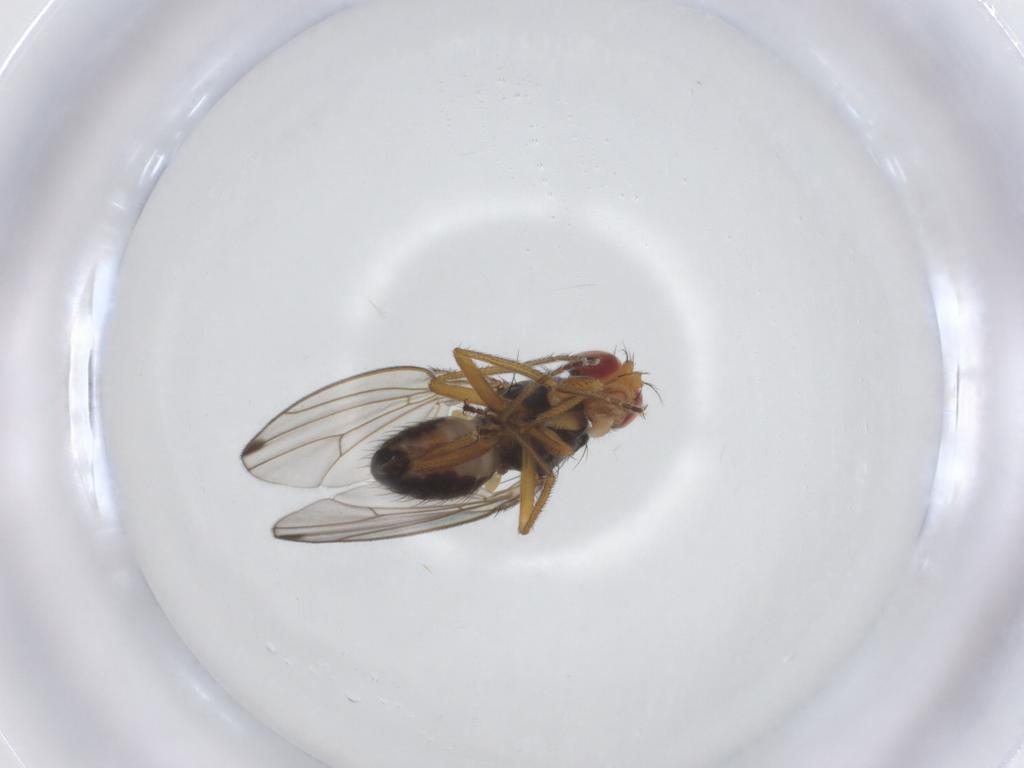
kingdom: Animalia
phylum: Arthropoda
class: Insecta
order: Diptera
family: Drosophilidae
